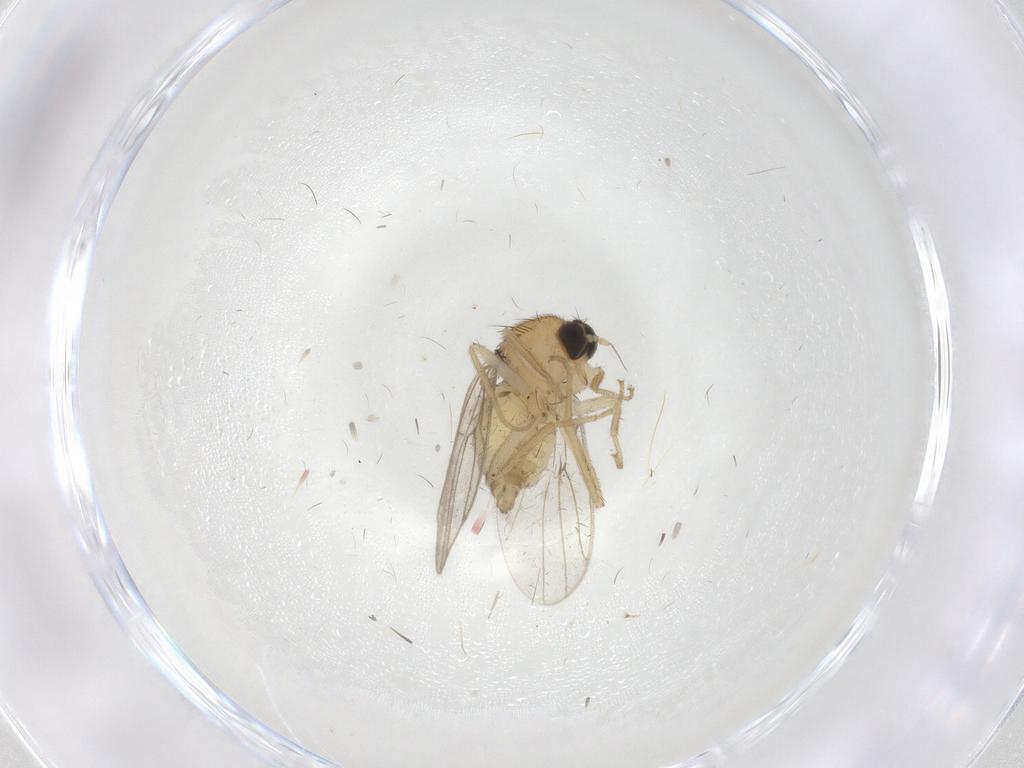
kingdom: Animalia
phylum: Arthropoda
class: Insecta
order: Diptera
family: Hybotidae
